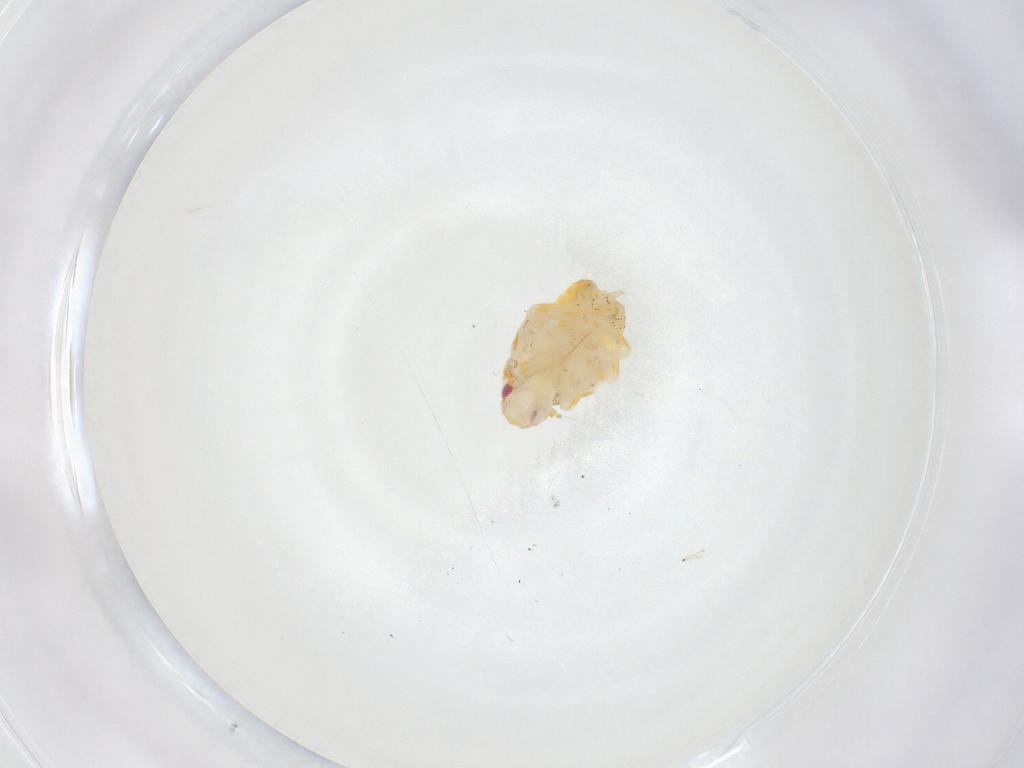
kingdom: Animalia
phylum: Arthropoda
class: Insecta
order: Hemiptera
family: Flatidae
